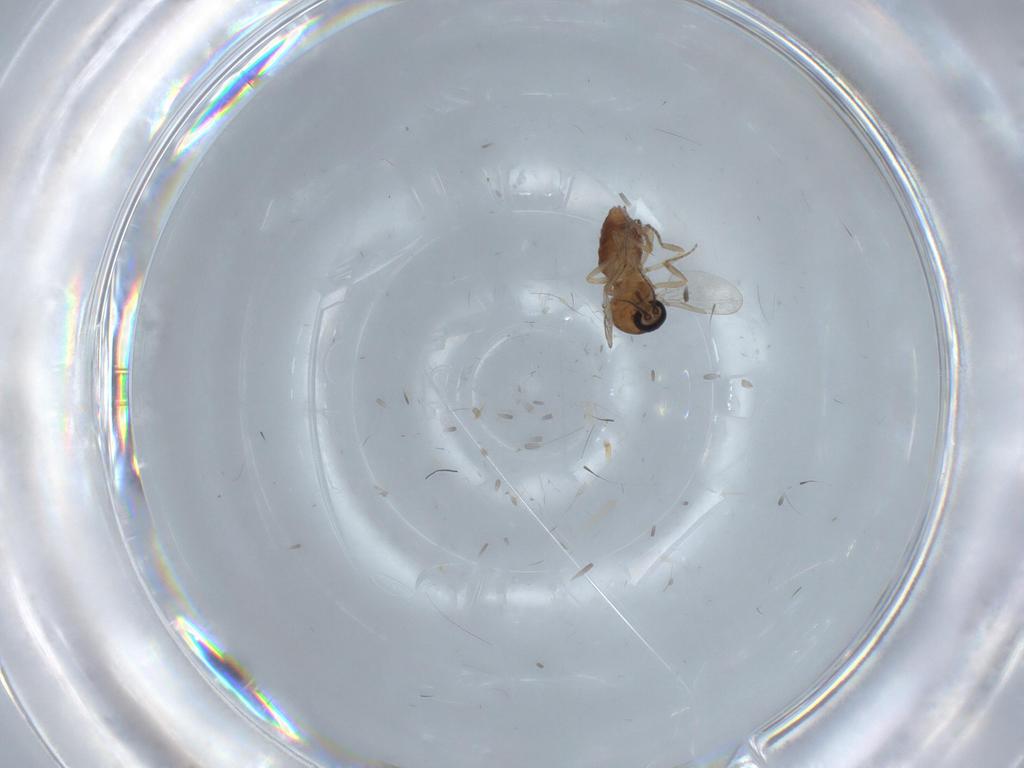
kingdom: Animalia
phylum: Arthropoda
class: Insecta
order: Diptera
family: Ceratopogonidae
